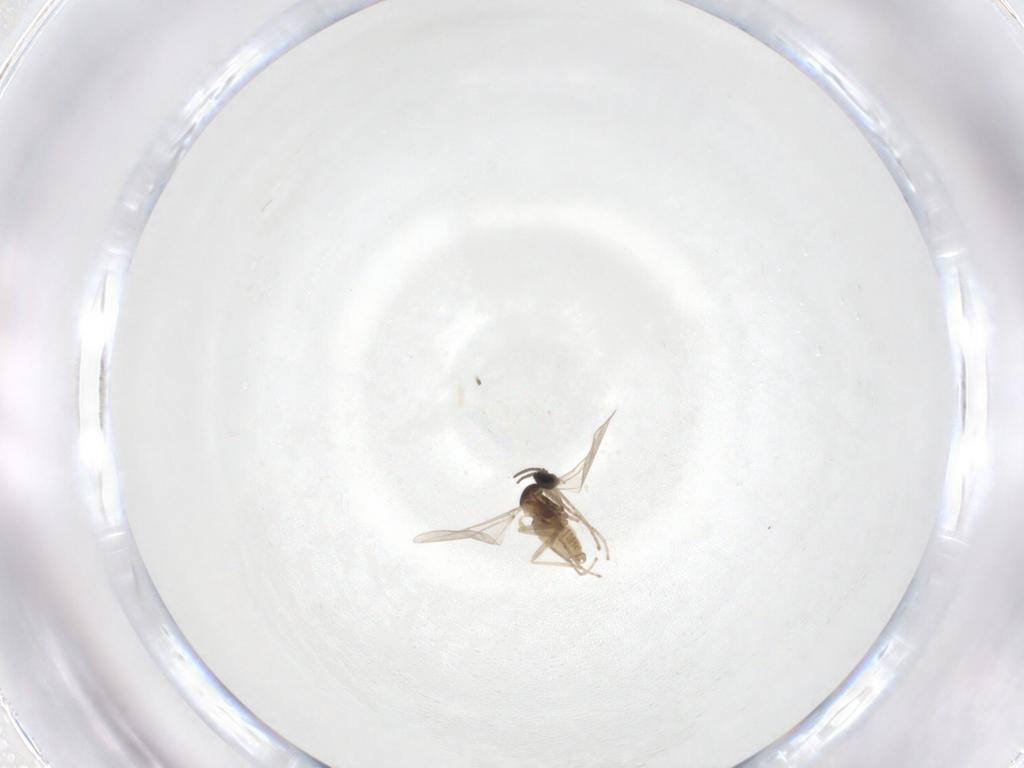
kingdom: Animalia
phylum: Arthropoda
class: Insecta
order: Diptera
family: Cecidomyiidae
